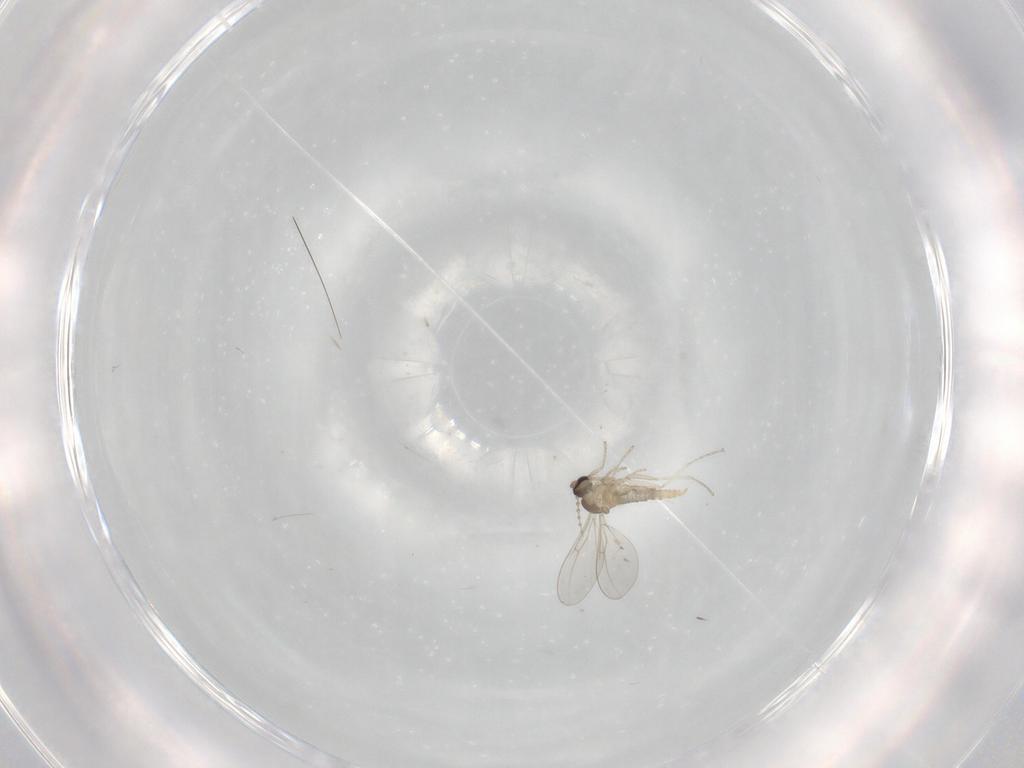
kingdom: Animalia
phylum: Arthropoda
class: Insecta
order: Diptera
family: Cecidomyiidae
